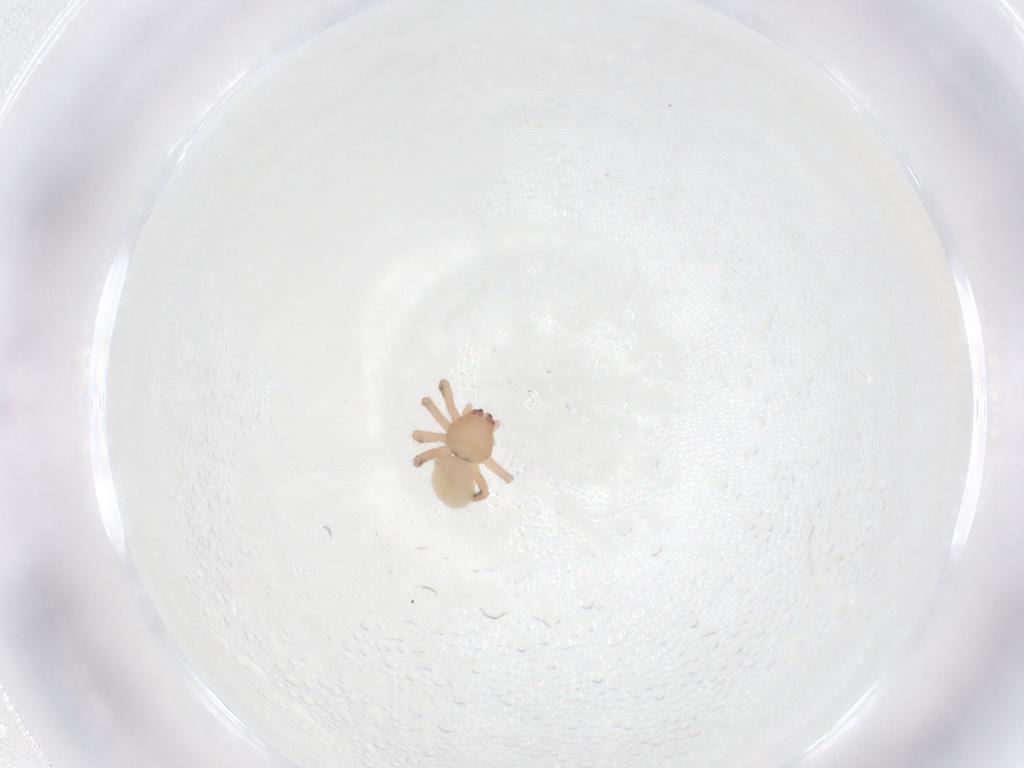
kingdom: Animalia
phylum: Arthropoda
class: Arachnida
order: Araneae
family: Theridiidae
